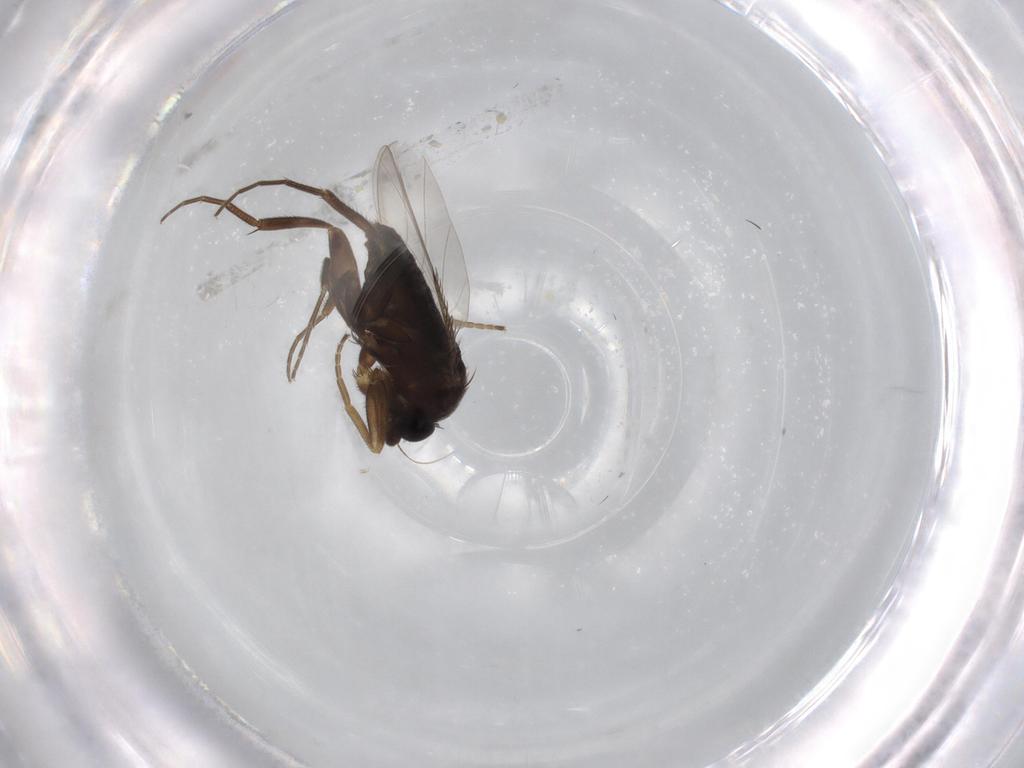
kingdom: Animalia
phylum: Arthropoda
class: Insecta
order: Diptera
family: Phoridae
